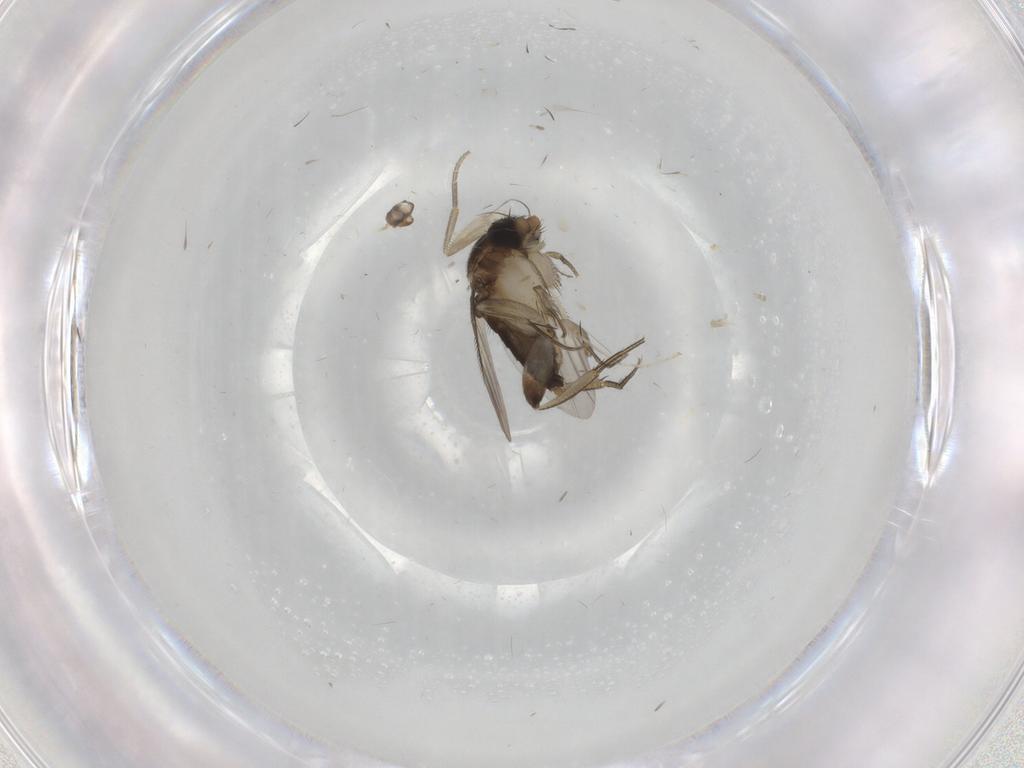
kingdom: Animalia
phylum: Arthropoda
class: Insecta
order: Diptera
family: Phoridae
